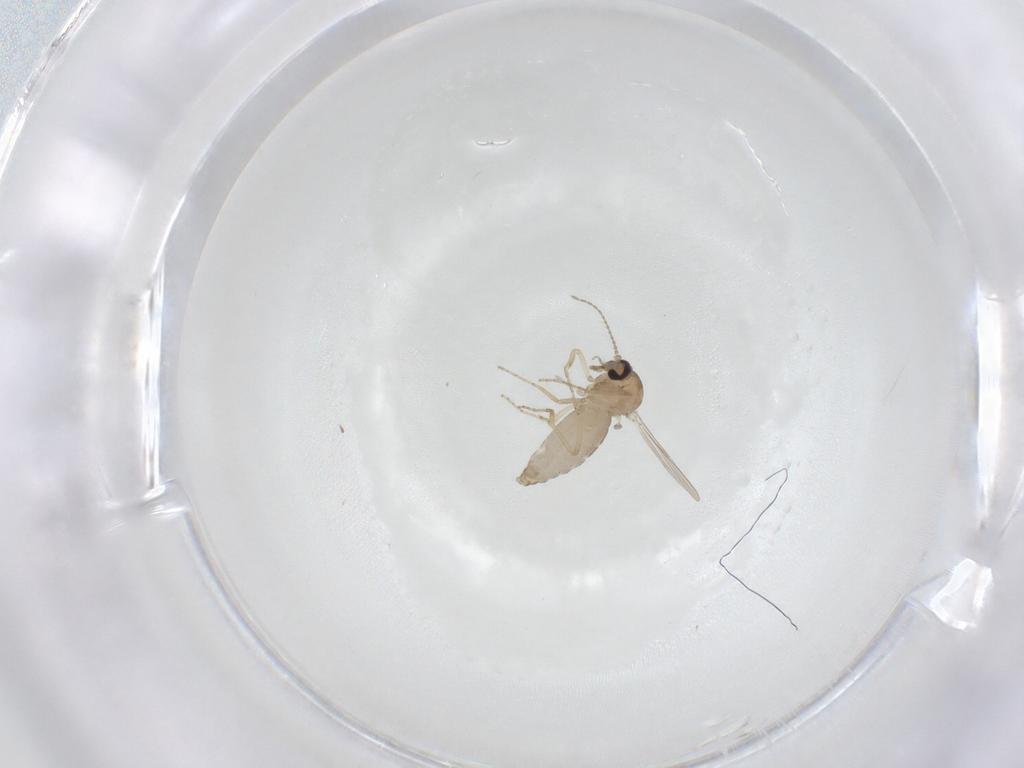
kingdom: Animalia
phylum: Arthropoda
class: Insecta
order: Diptera
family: Ceratopogonidae
